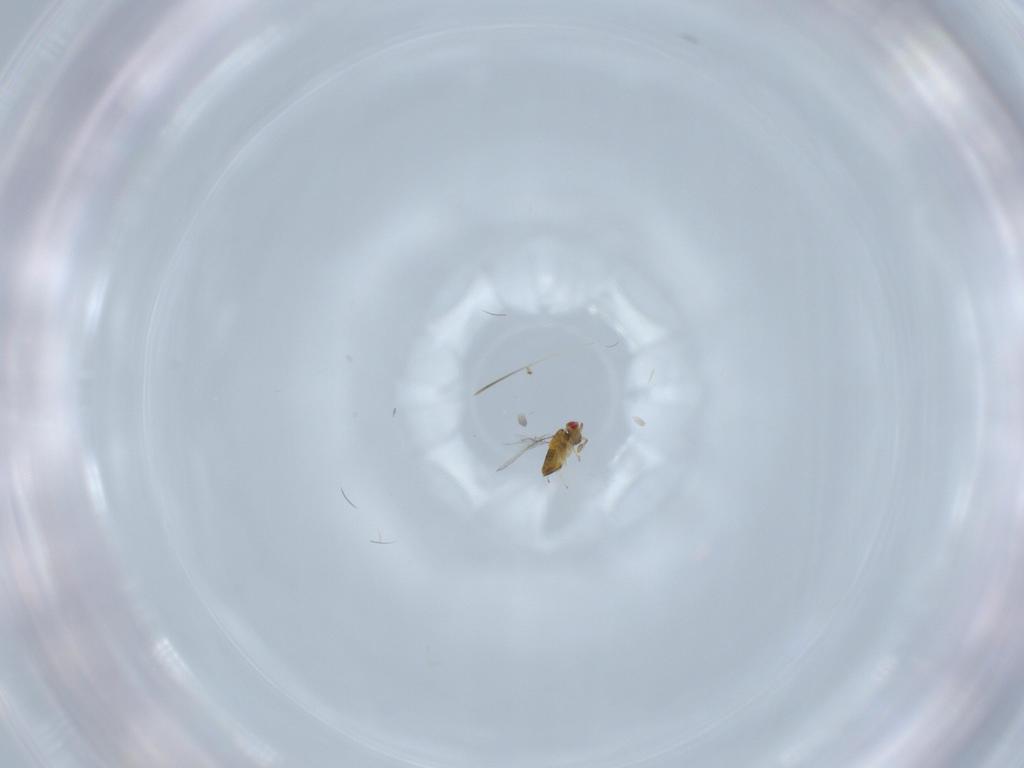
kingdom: Animalia
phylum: Arthropoda
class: Insecta
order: Hymenoptera
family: Trichogrammatidae
